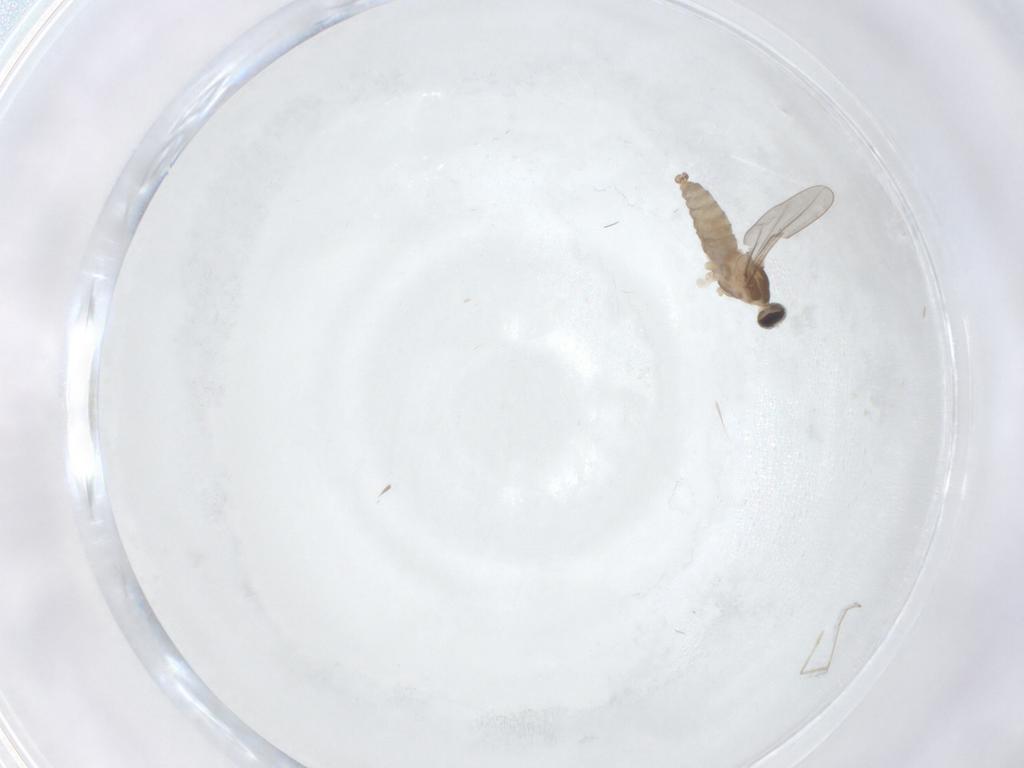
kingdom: Animalia
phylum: Arthropoda
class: Insecta
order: Diptera
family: Cecidomyiidae
